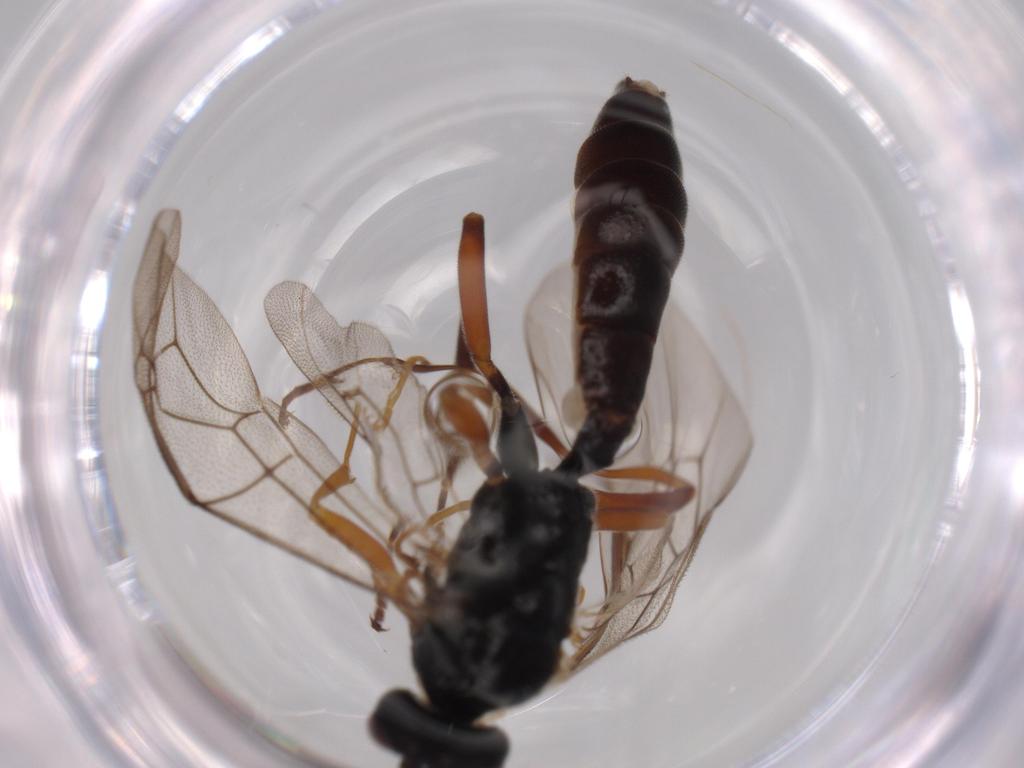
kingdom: Animalia
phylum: Arthropoda
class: Insecta
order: Hymenoptera
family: Ichneumonidae
